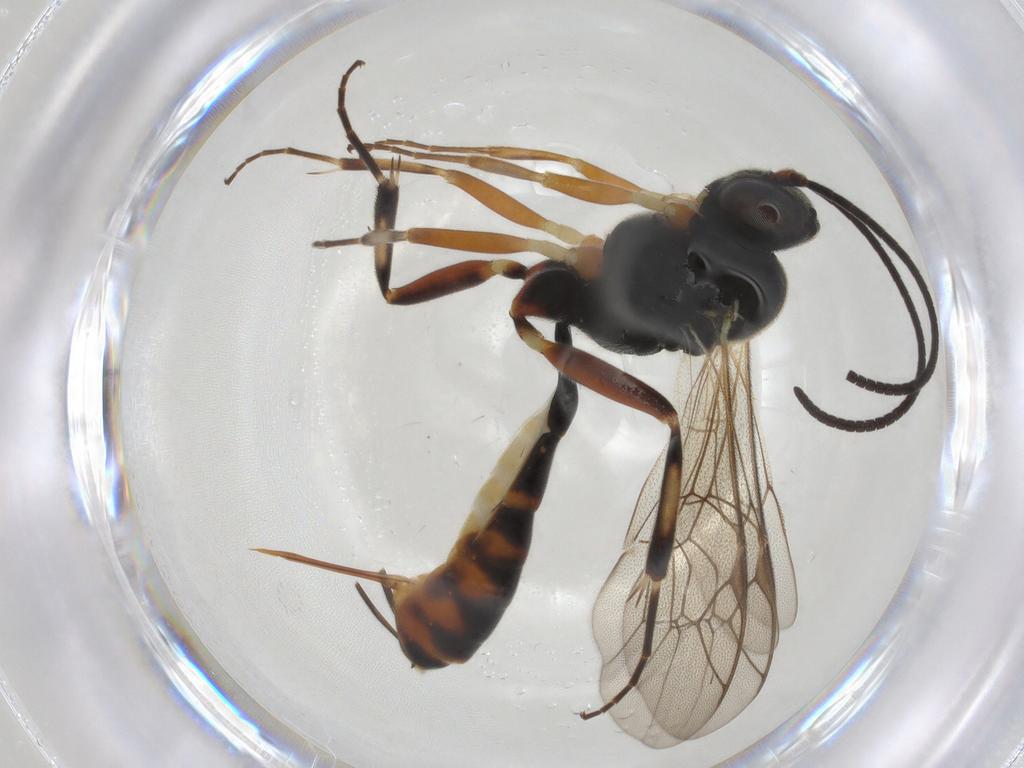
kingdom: Animalia
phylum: Arthropoda
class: Insecta
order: Hymenoptera
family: Ichneumonidae
